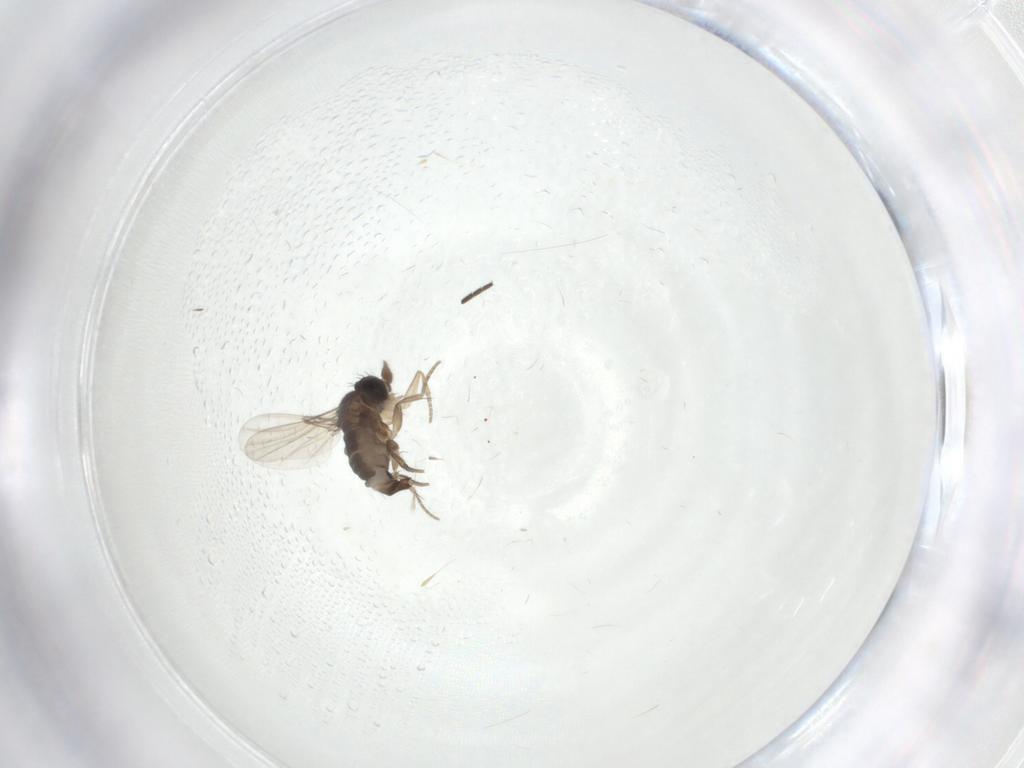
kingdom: Animalia
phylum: Arthropoda
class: Insecta
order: Diptera
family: Phoridae
